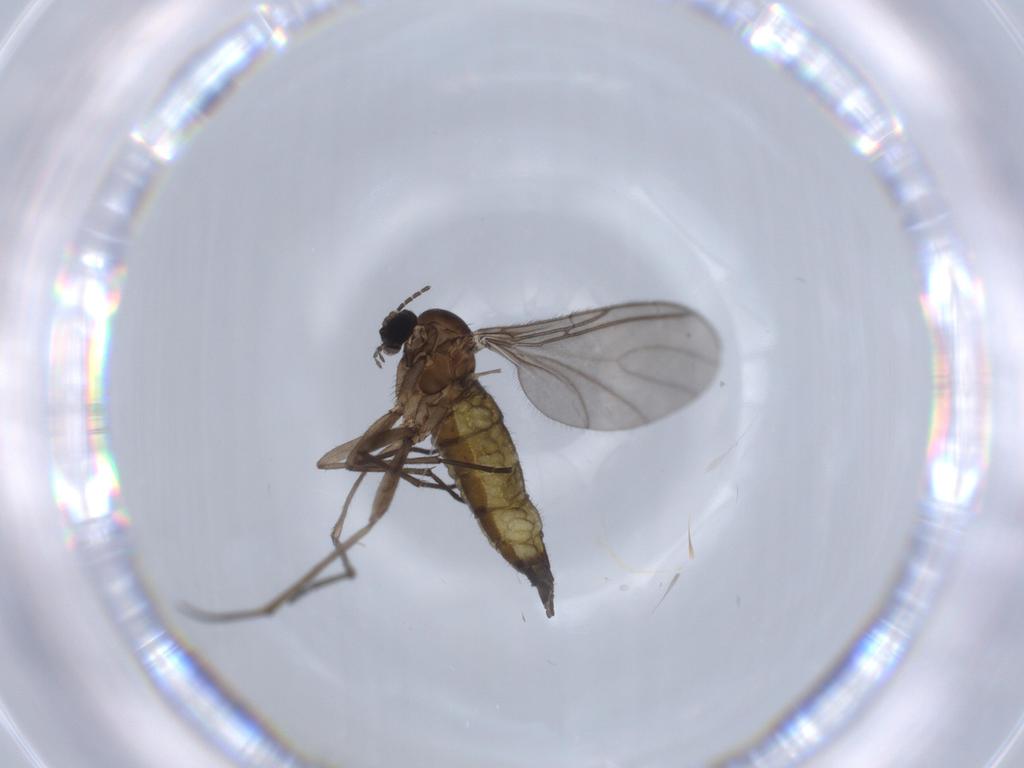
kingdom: Animalia
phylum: Arthropoda
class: Insecta
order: Diptera
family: Sciaridae
